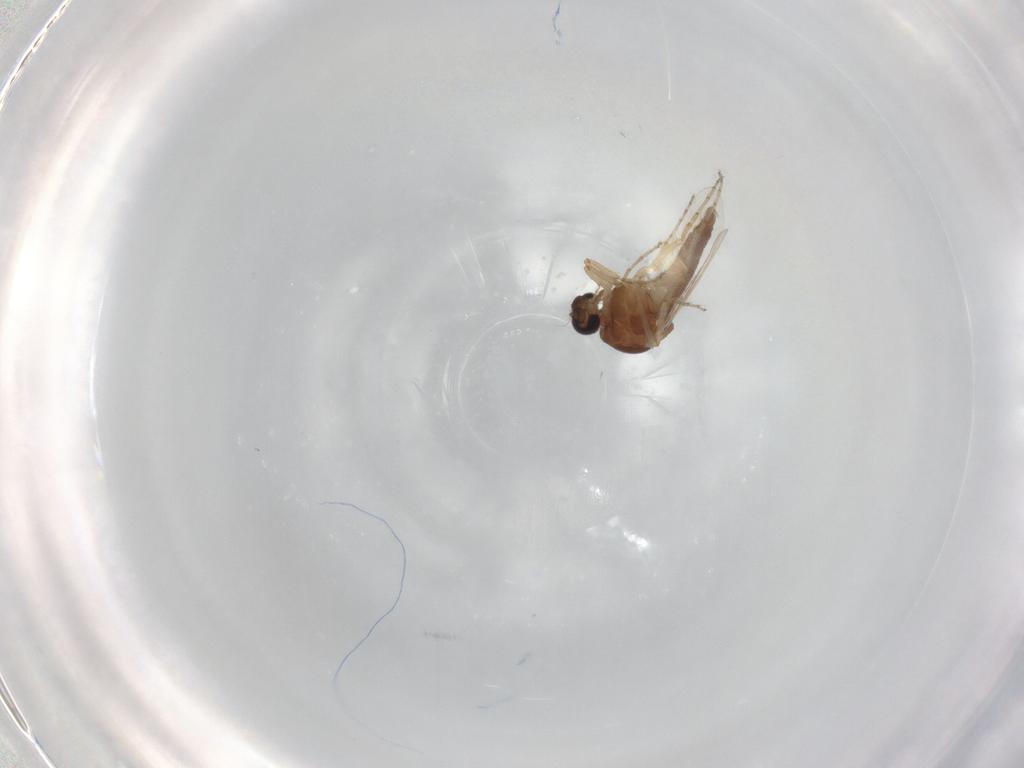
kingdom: Animalia
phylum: Arthropoda
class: Insecta
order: Diptera
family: Ceratopogonidae
